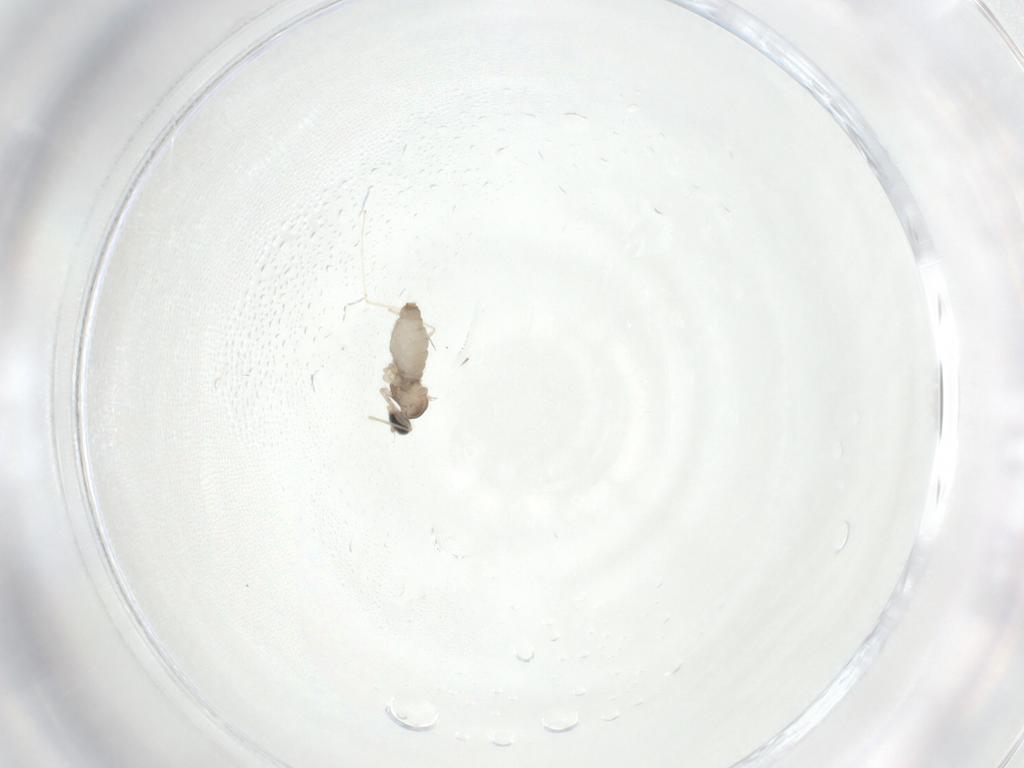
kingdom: Animalia
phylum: Arthropoda
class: Insecta
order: Diptera
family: Cecidomyiidae
